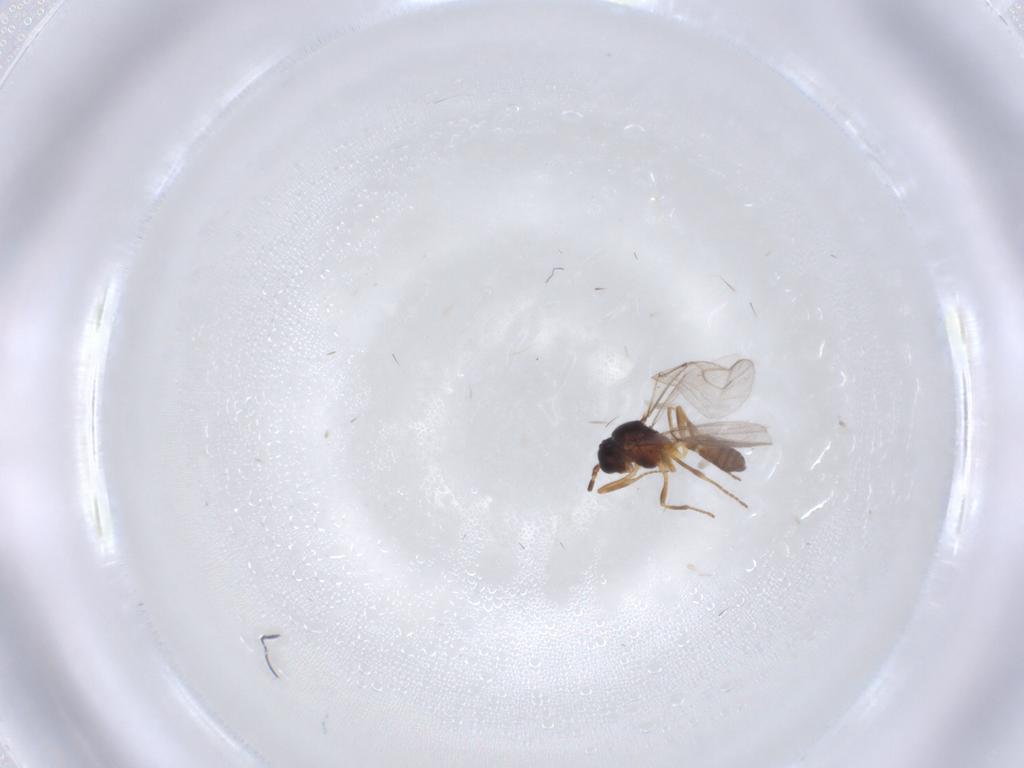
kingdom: Animalia
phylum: Arthropoda
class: Insecta
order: Hymenoptera
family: Braconidae
